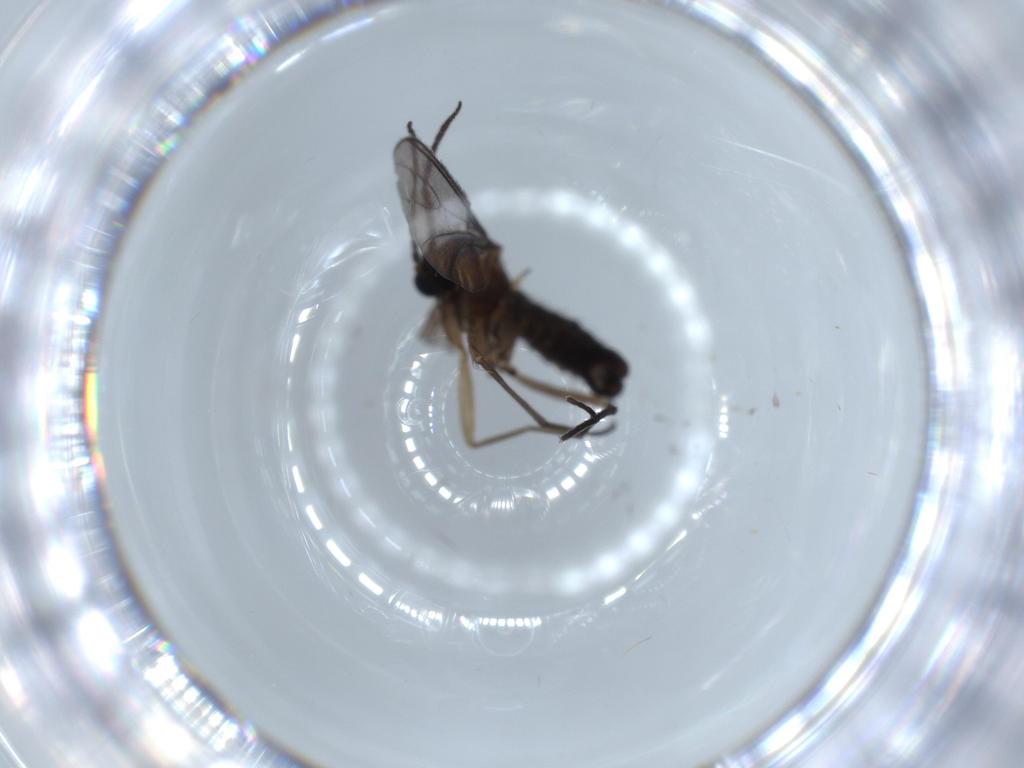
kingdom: Animalia
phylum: Arthropoda
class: Insecta
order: Diptera
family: Sciaridae
